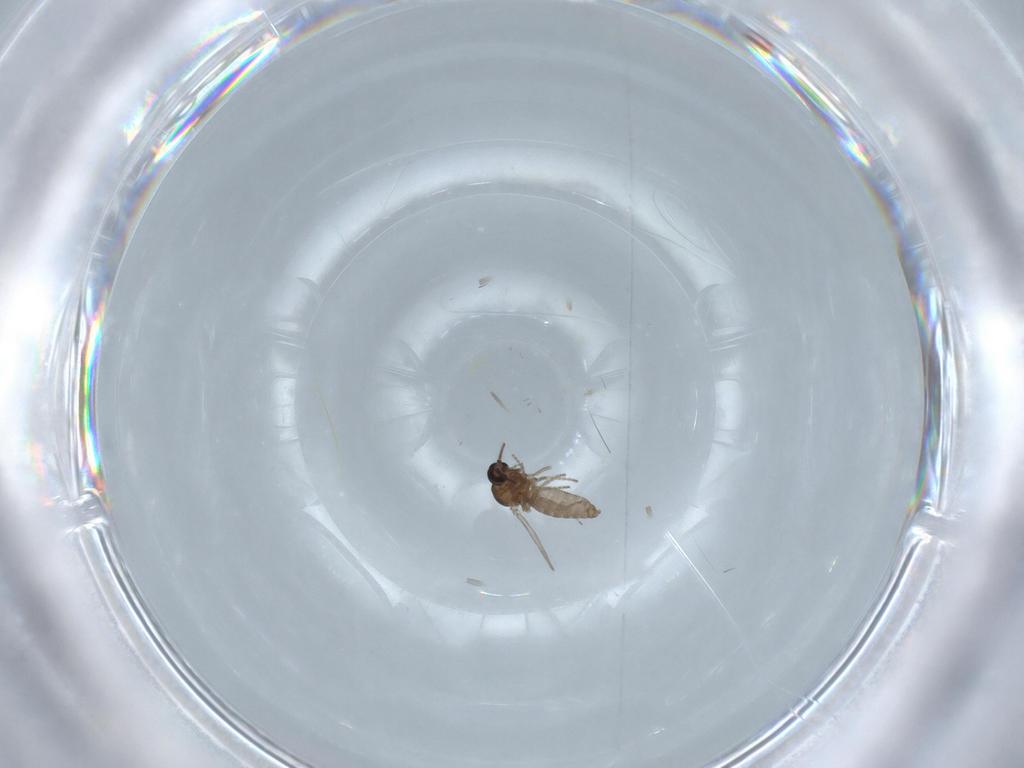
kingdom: Animalia
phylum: Arthropoda
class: Insecta
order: Diptera
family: Ceratopogonidae
